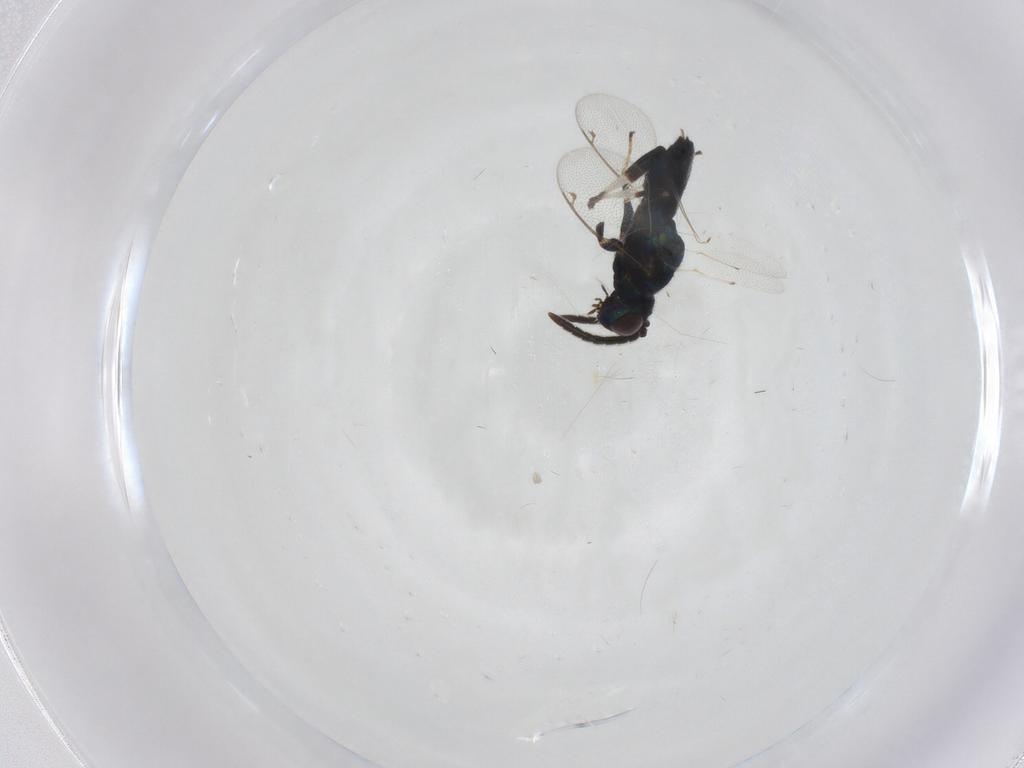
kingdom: Animalia
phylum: Arthropoda
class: Insecta
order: Hymenoptera
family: Eupelmidae
